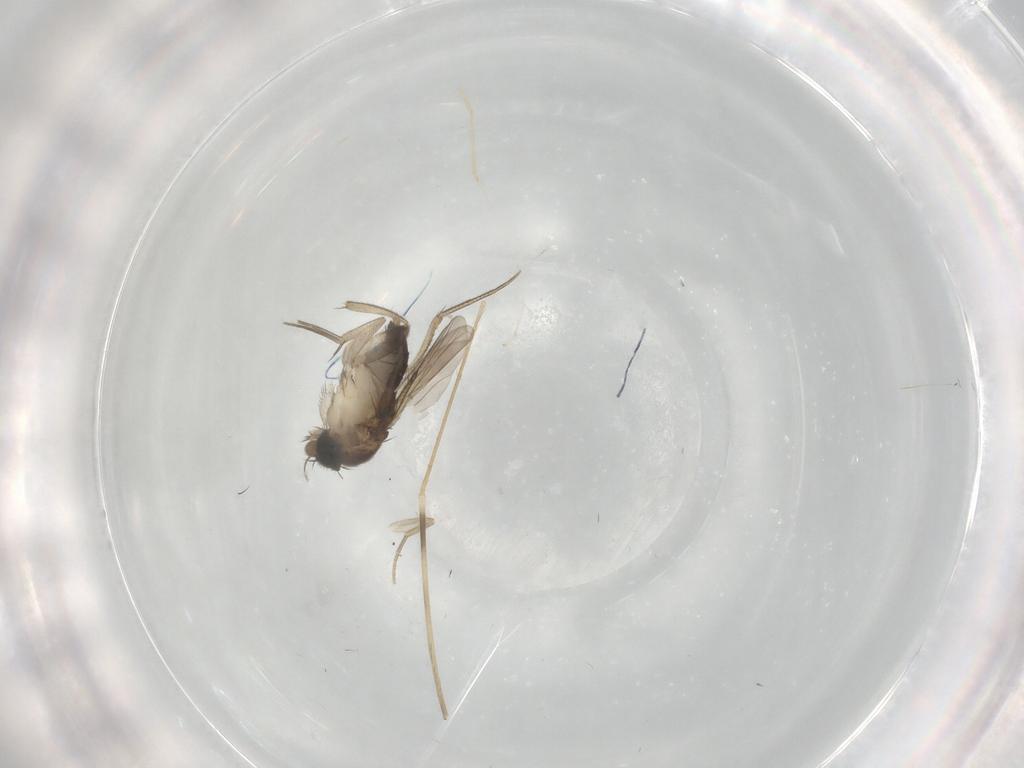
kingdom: Animalia
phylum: Arthropoda
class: Insecta
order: Diptera
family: Phoridae
